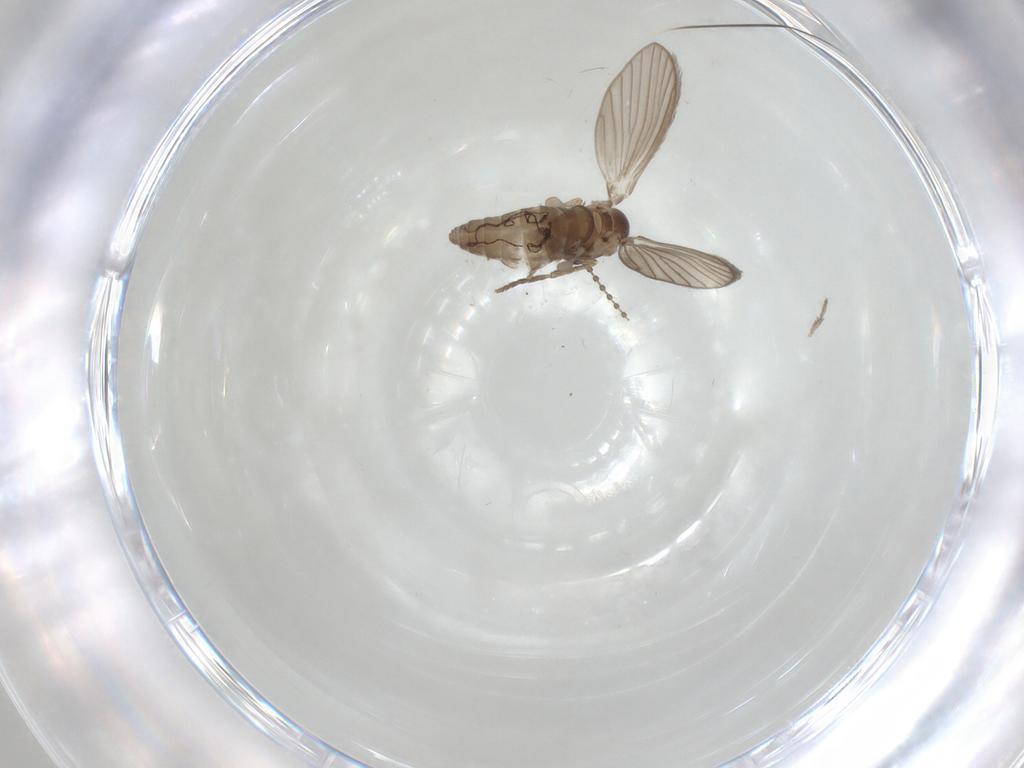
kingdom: Animalia
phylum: Arthropoda
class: Insecta
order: Diptera
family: Psychodidae
